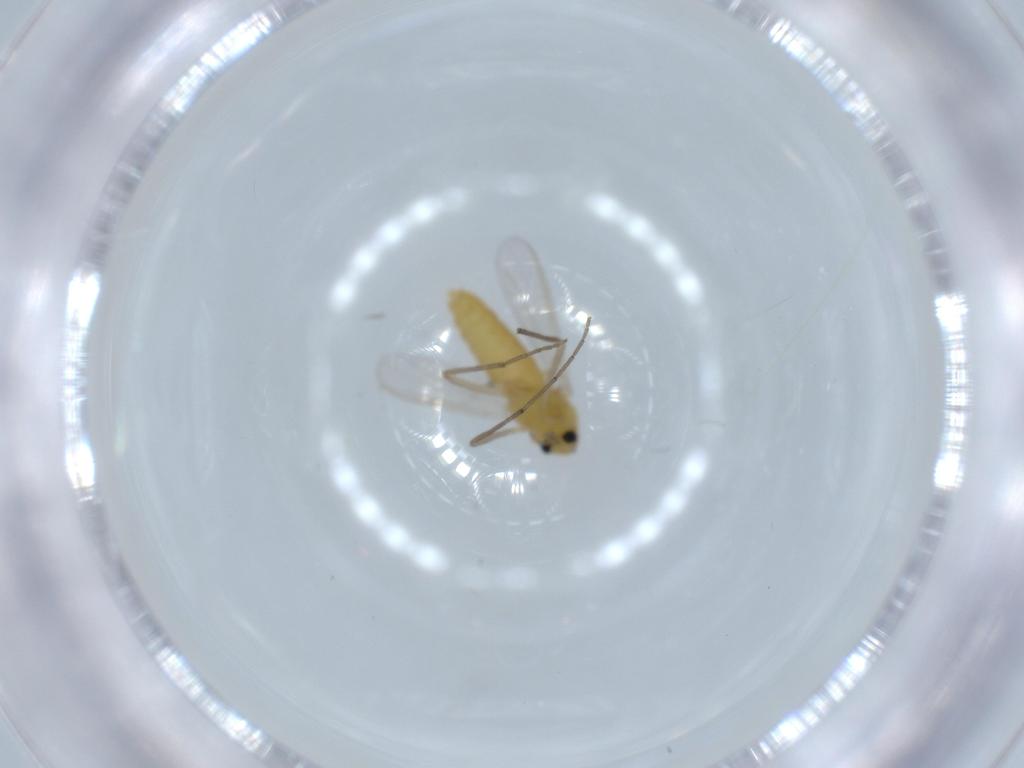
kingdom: Animalia
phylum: Arthropoda
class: Insecta
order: Diptera
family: Chironomidae
